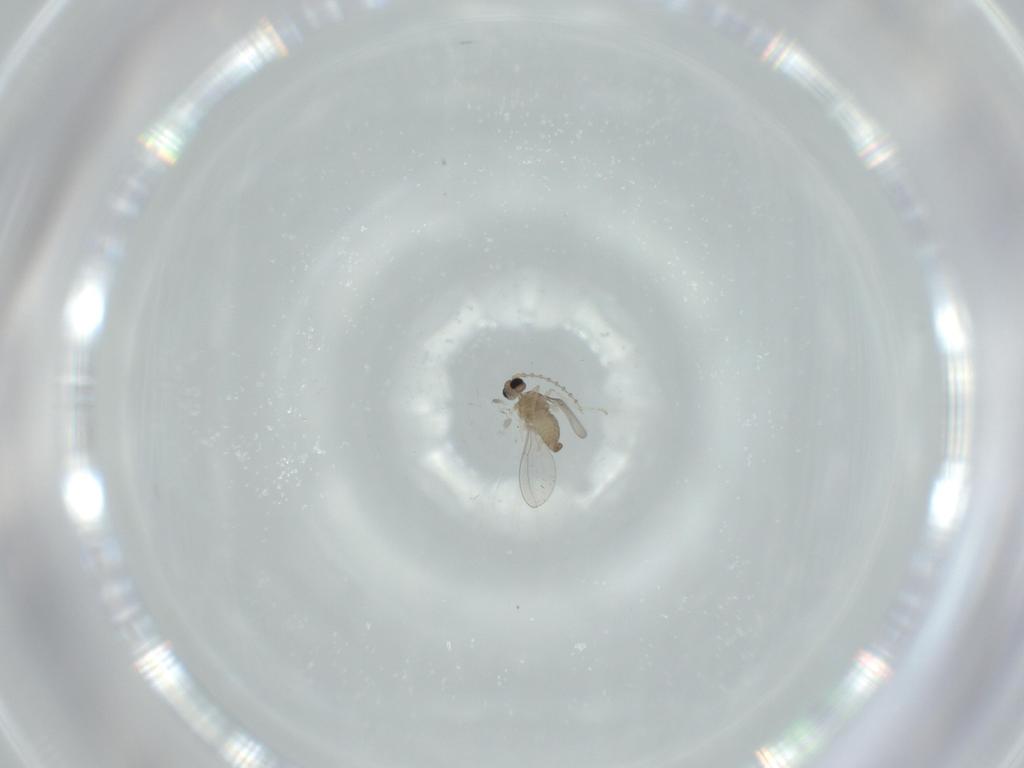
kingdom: Animalia
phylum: Arthropoda
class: Insecta
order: Diptera
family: Cecidomyiidae
